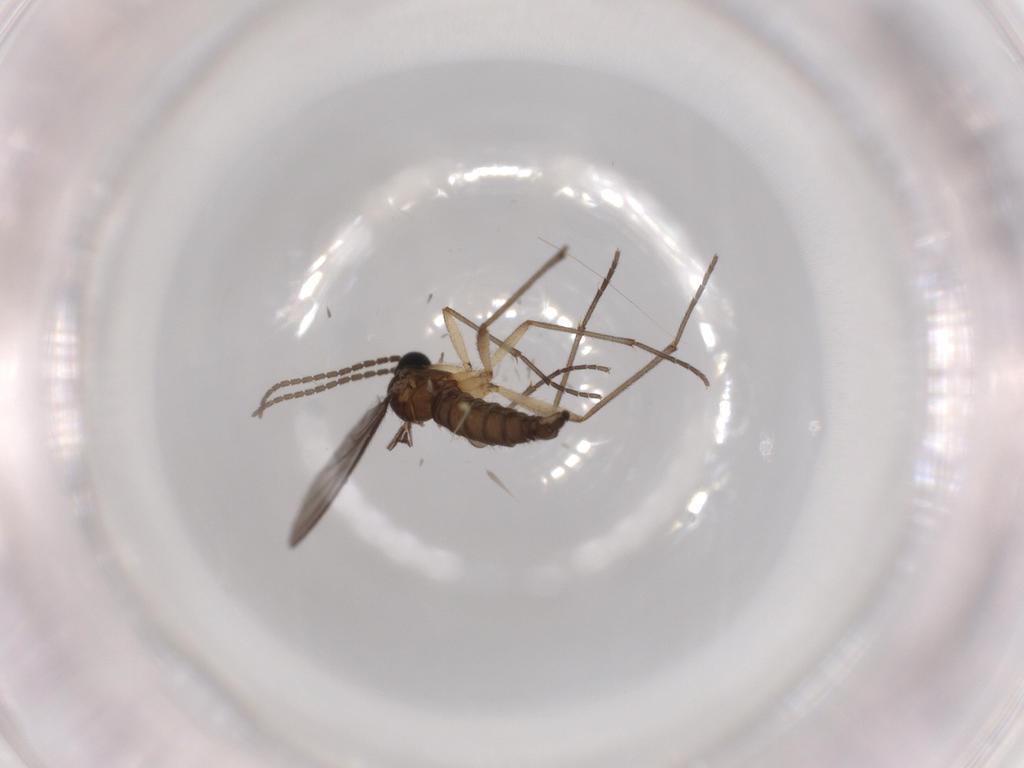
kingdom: Animalia
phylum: Arthropoda
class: Insecta
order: Diptera
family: Sciaridae
